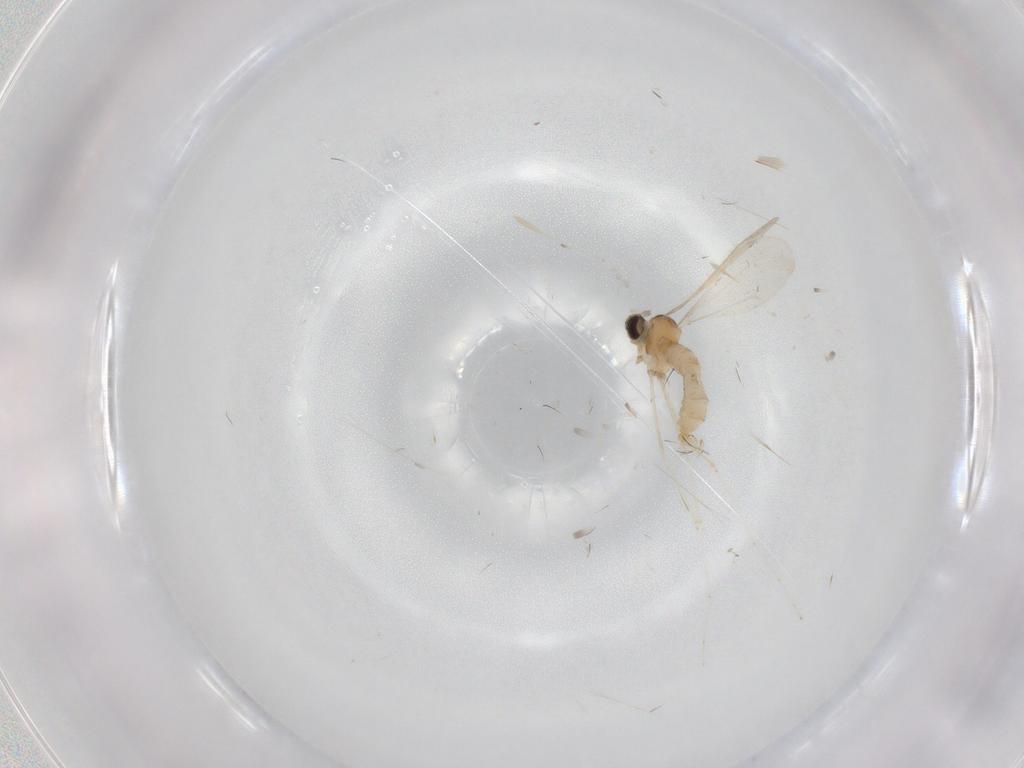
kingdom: Animalia
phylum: Arthropoda
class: Insecta
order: Diptera
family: Cecidomyiidae
